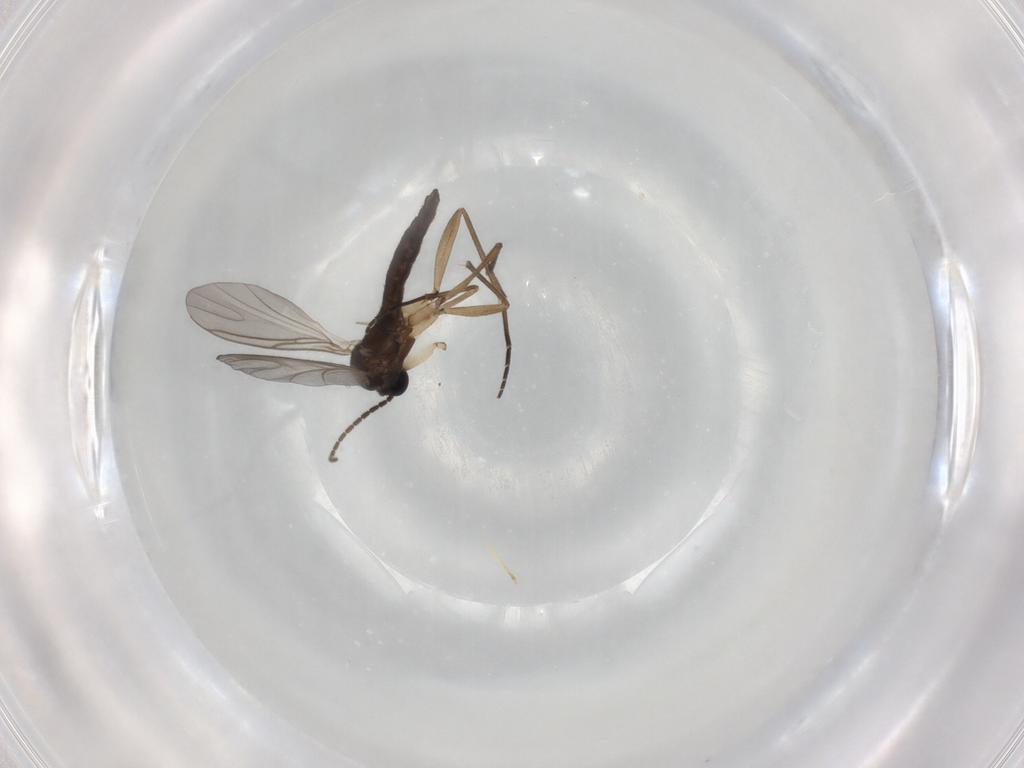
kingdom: Animalia
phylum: Arthropoda
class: Insecta
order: Diptera
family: Sciaridae
